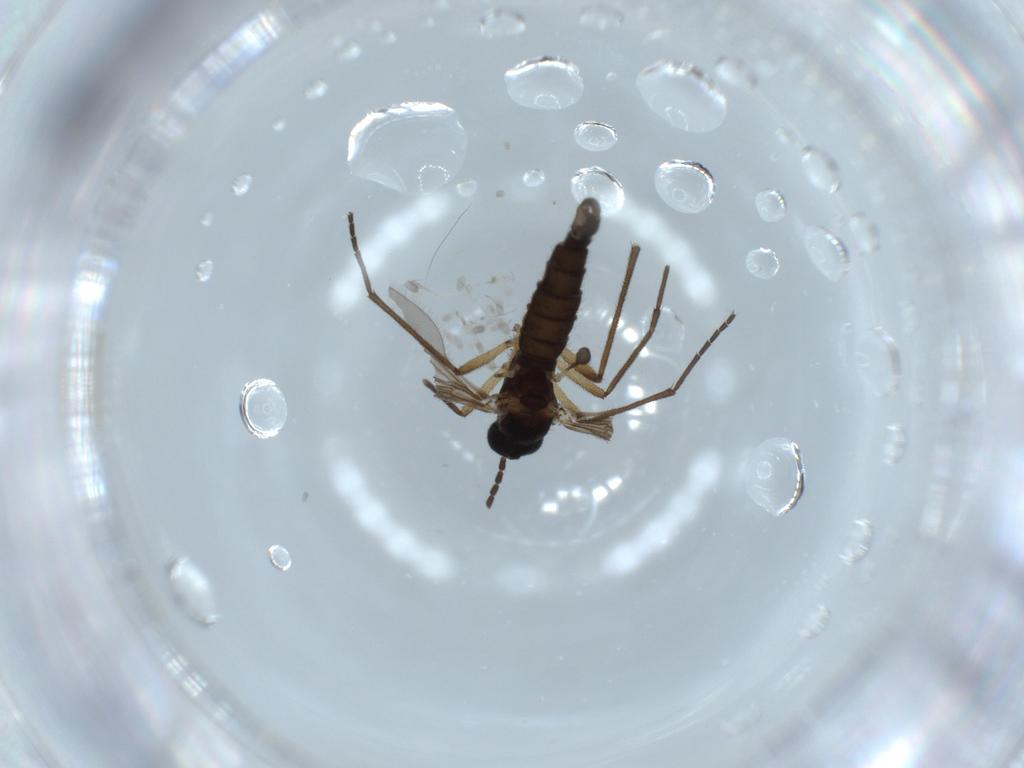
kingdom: Animalia
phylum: Arthropoda
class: Insecta
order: Diptera
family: Sciaridae
